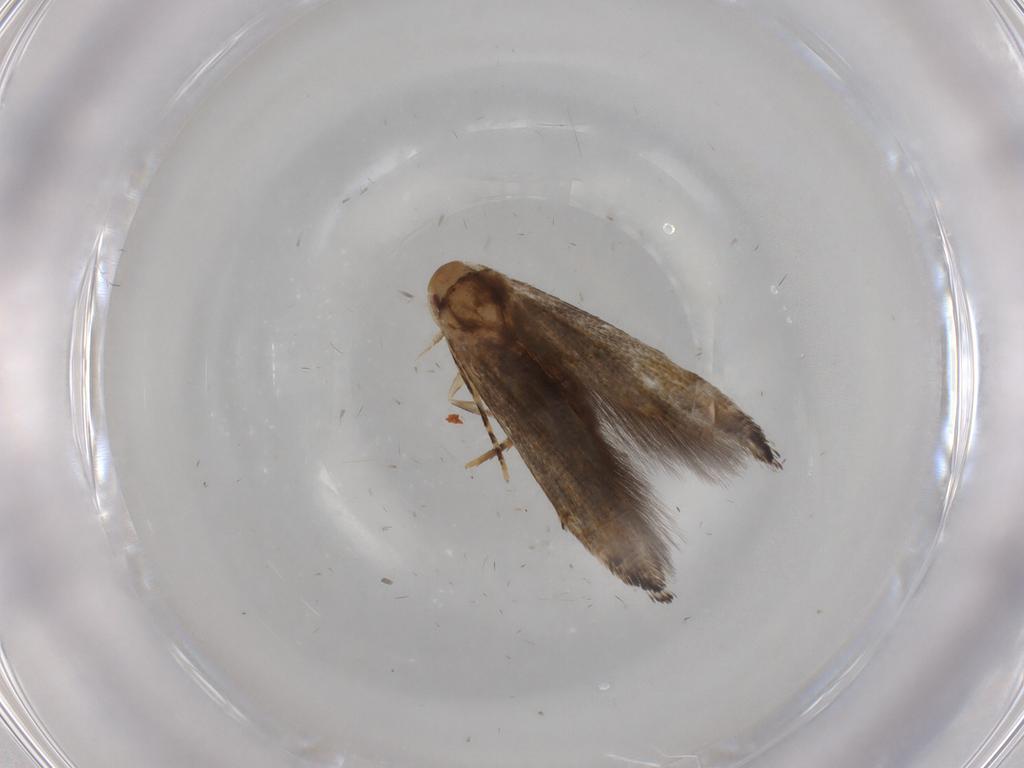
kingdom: Animalia
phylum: Arthropoda
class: Insecta
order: Lepidoptera
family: Momphidae
